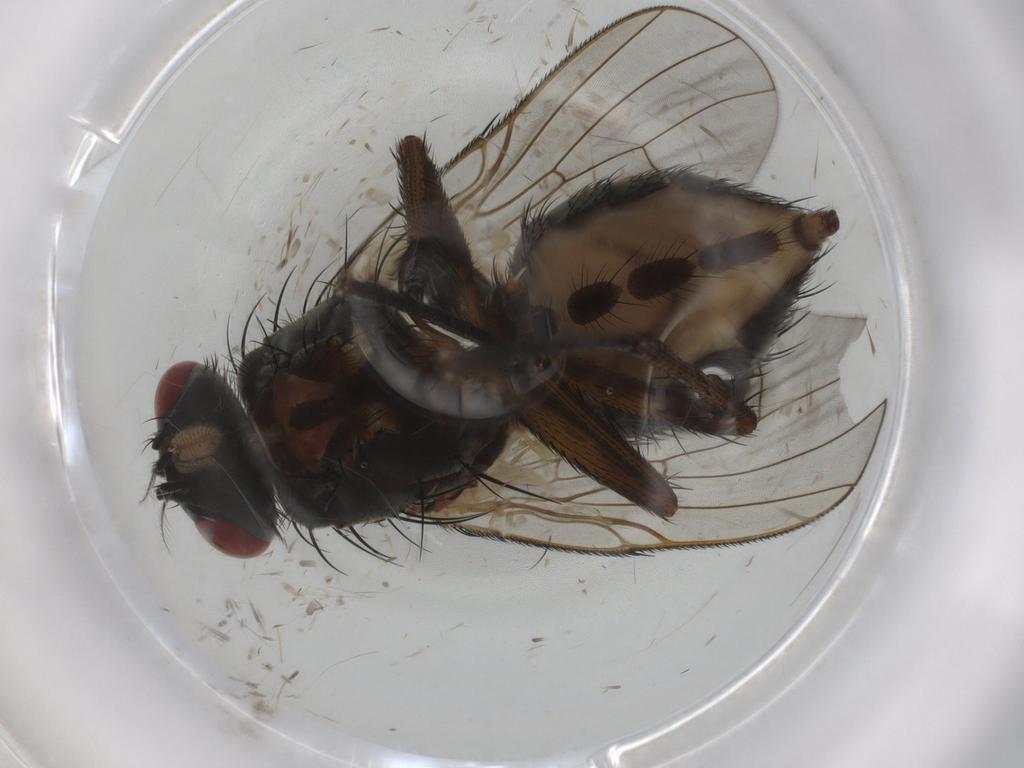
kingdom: Animalia
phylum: Arthropoda
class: Insecta
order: Diptera
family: Muscidae
